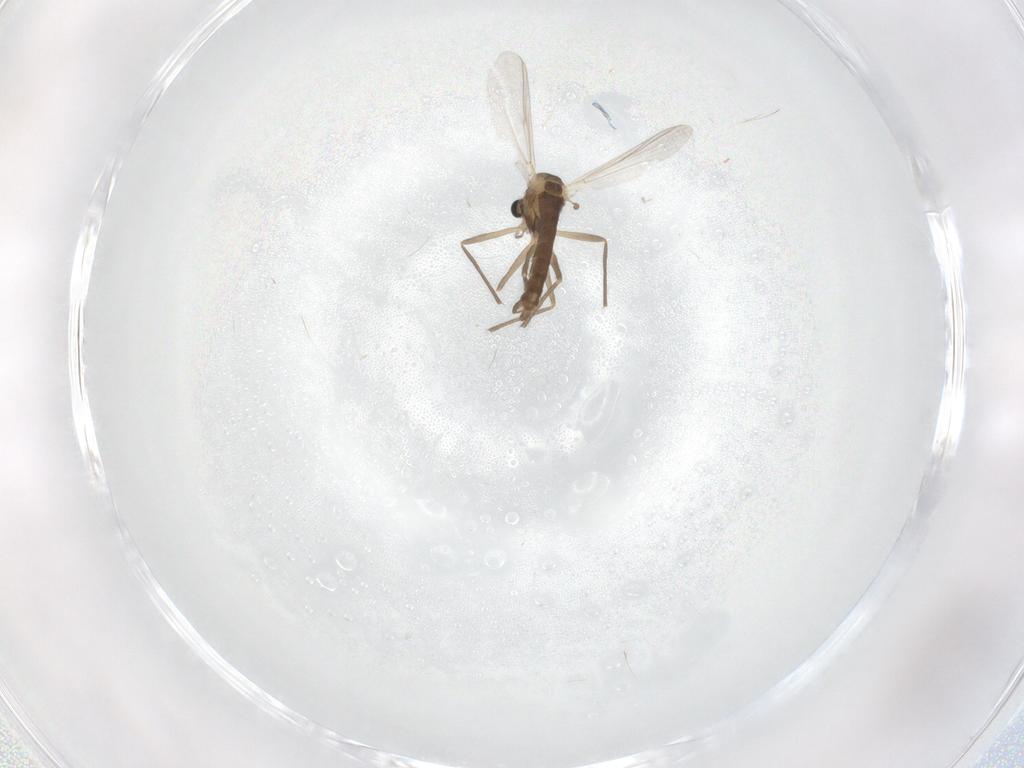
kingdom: Animalia
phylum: Arthropoda
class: Insecta
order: Diptera
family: Chironomidae
